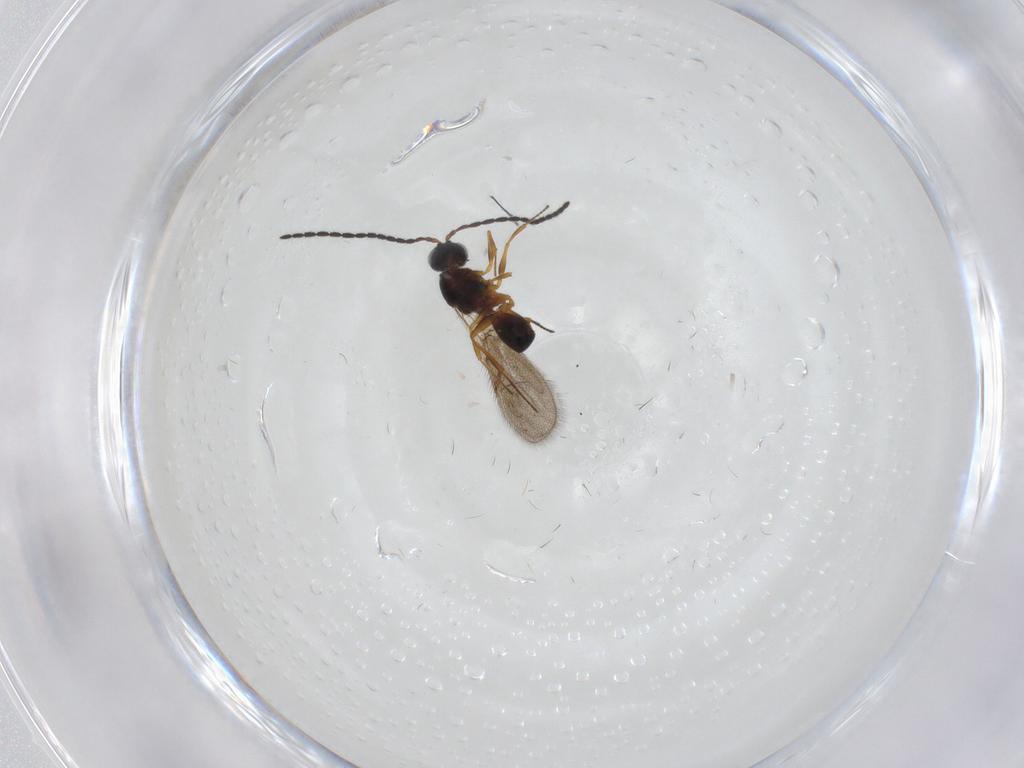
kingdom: Animalia
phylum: Arthropoda
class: Insecta
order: Hymenoptera
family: Figitidae
